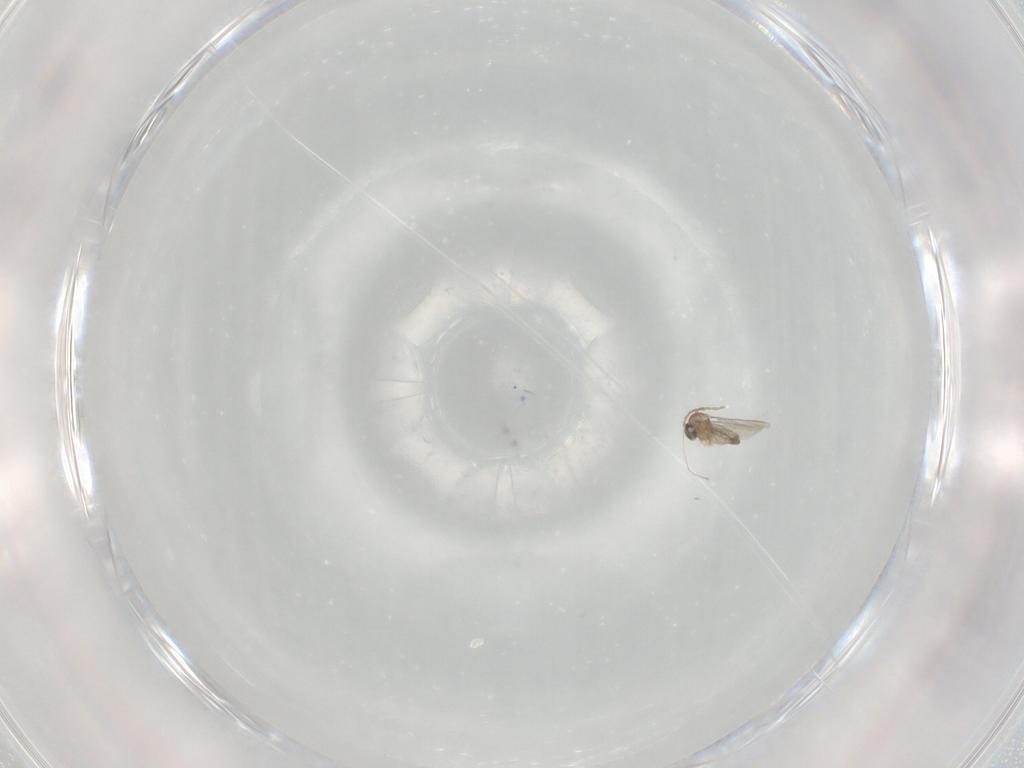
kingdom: Animalia
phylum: Arthropoda
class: Insecta
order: Diptera
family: Cecidomyiidae
